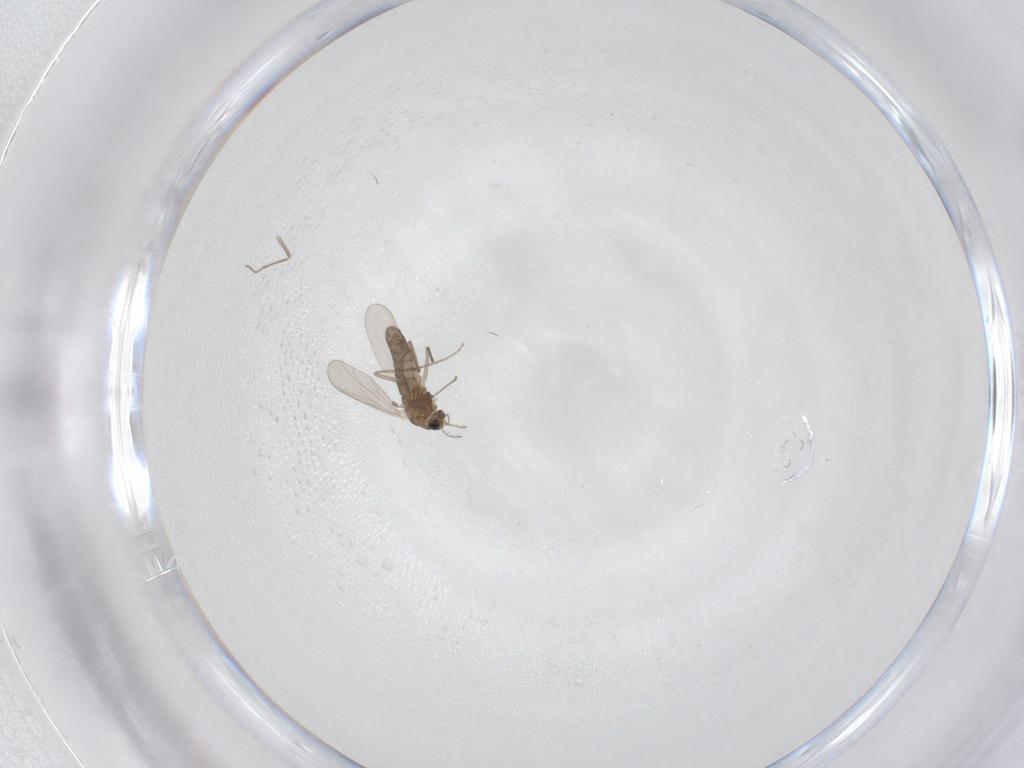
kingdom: Animalia
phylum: Arthropoda
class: Insecta
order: Diptera
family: Chironomidae
